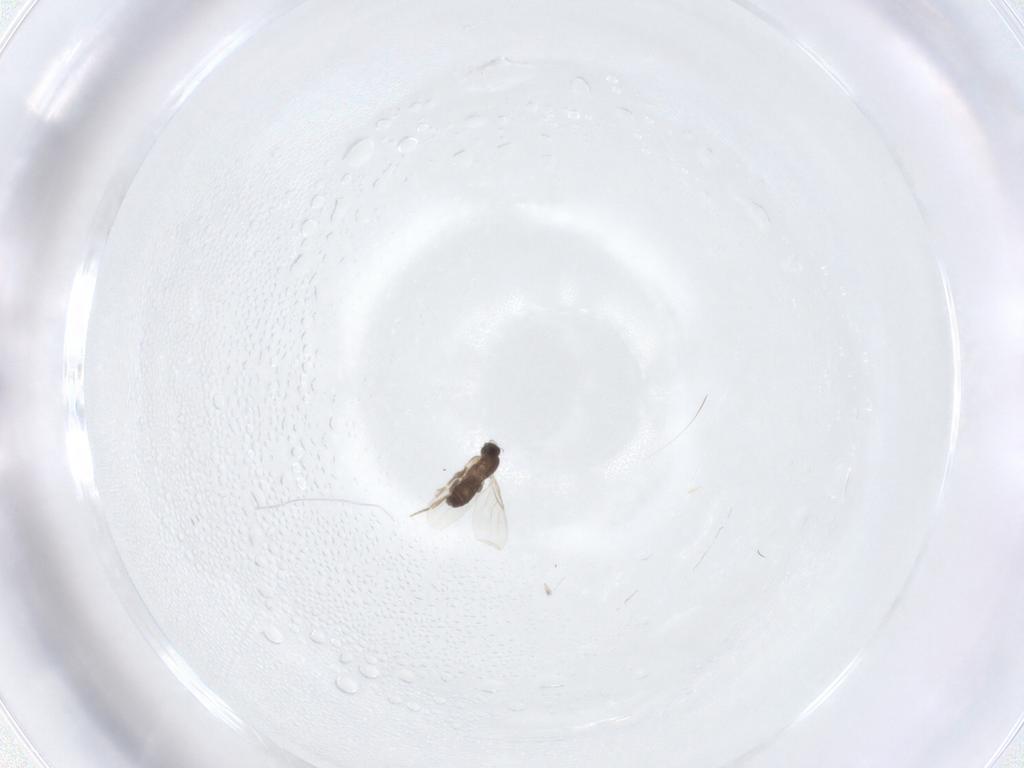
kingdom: Animalia
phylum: Arthropoda
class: Insecta
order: Diptera
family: Phoridae
